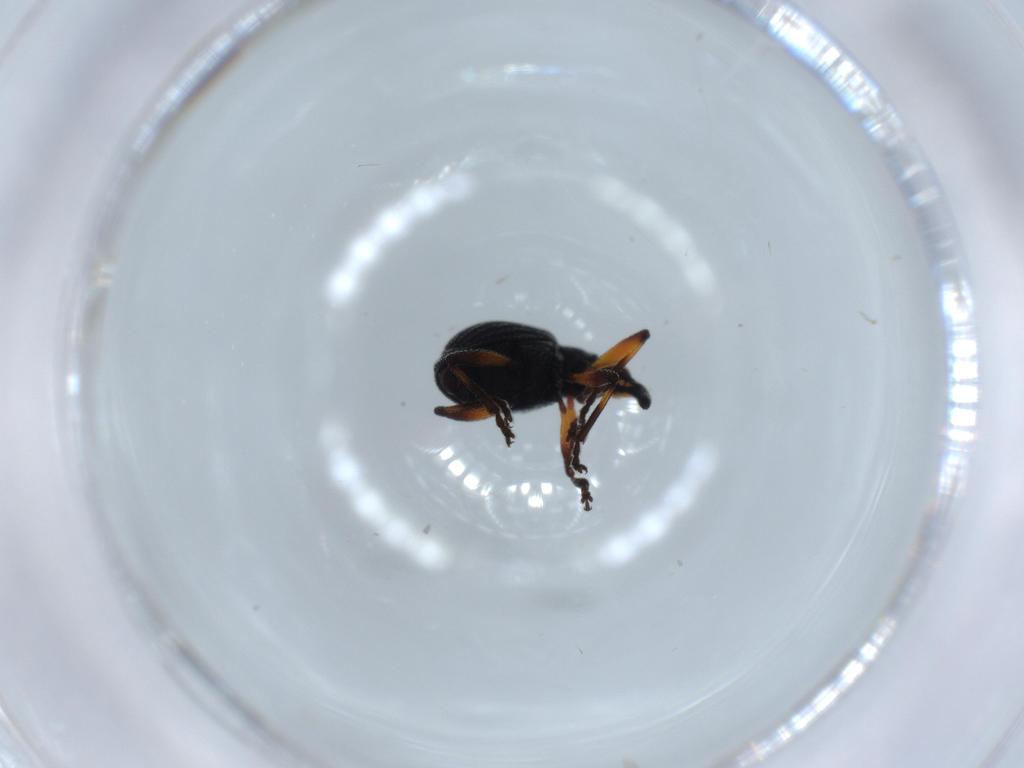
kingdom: Animalia
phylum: Arthropoda
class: Insecta
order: Coleoptera
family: Brentidae
